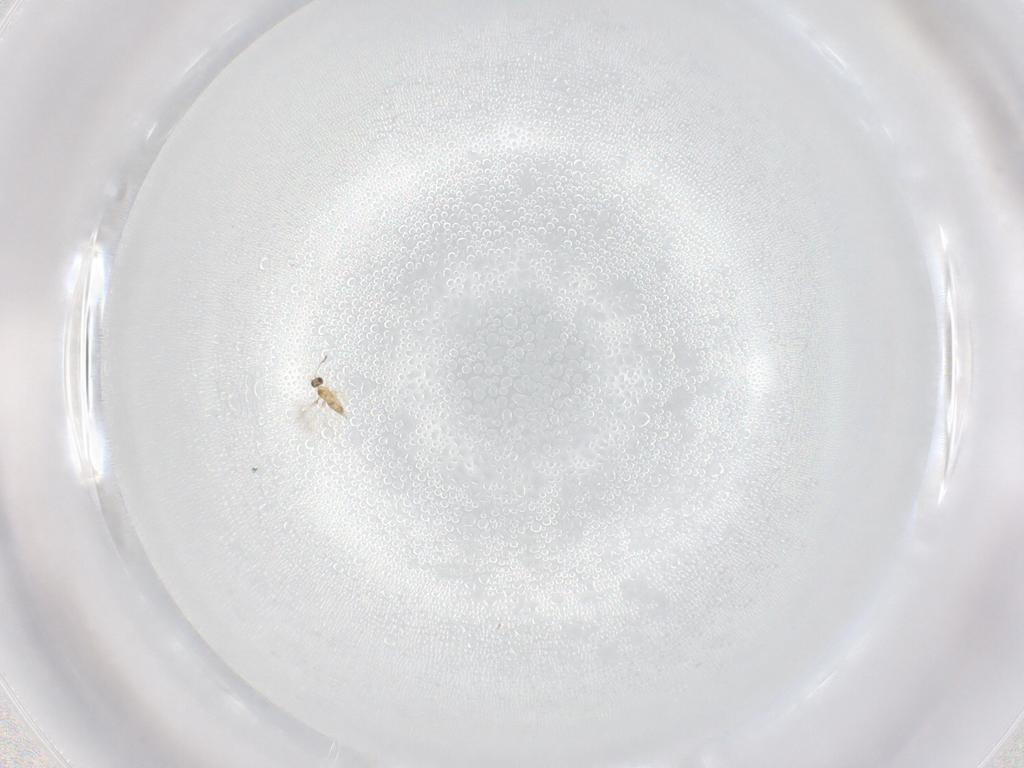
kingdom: Animalia
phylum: Arthropoda
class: Insecta
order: Hymenoptera
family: Mymaridae
